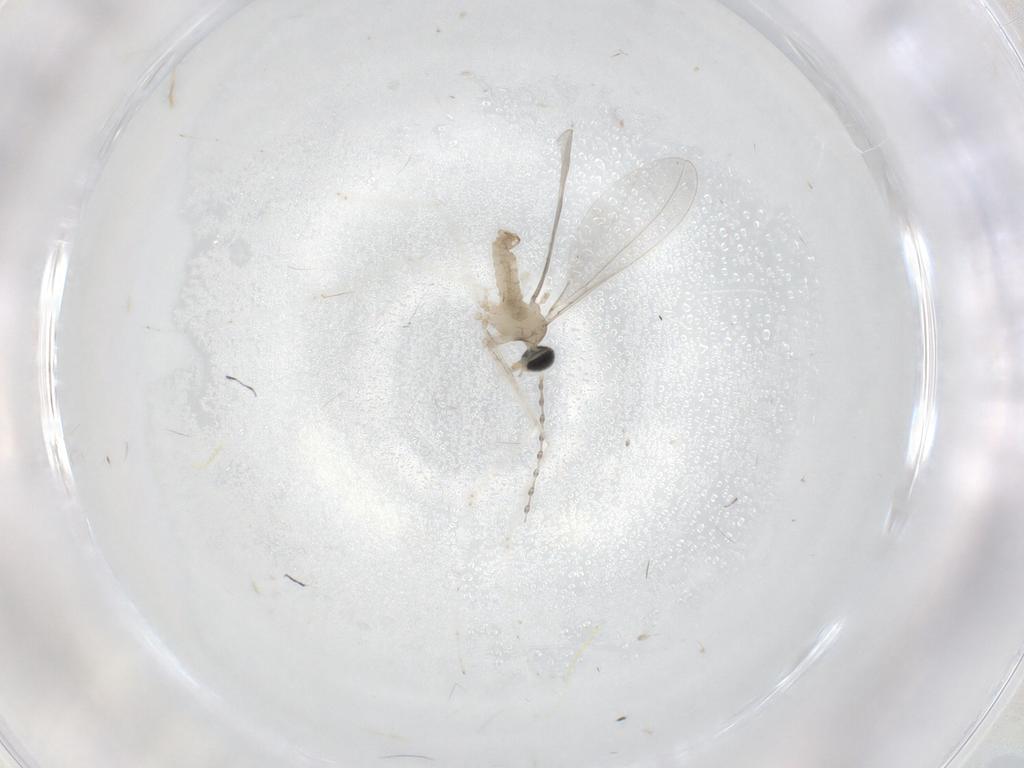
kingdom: Animalia
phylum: Arthropoda
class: Insecta
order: Diptera
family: Cecidomyiidae
